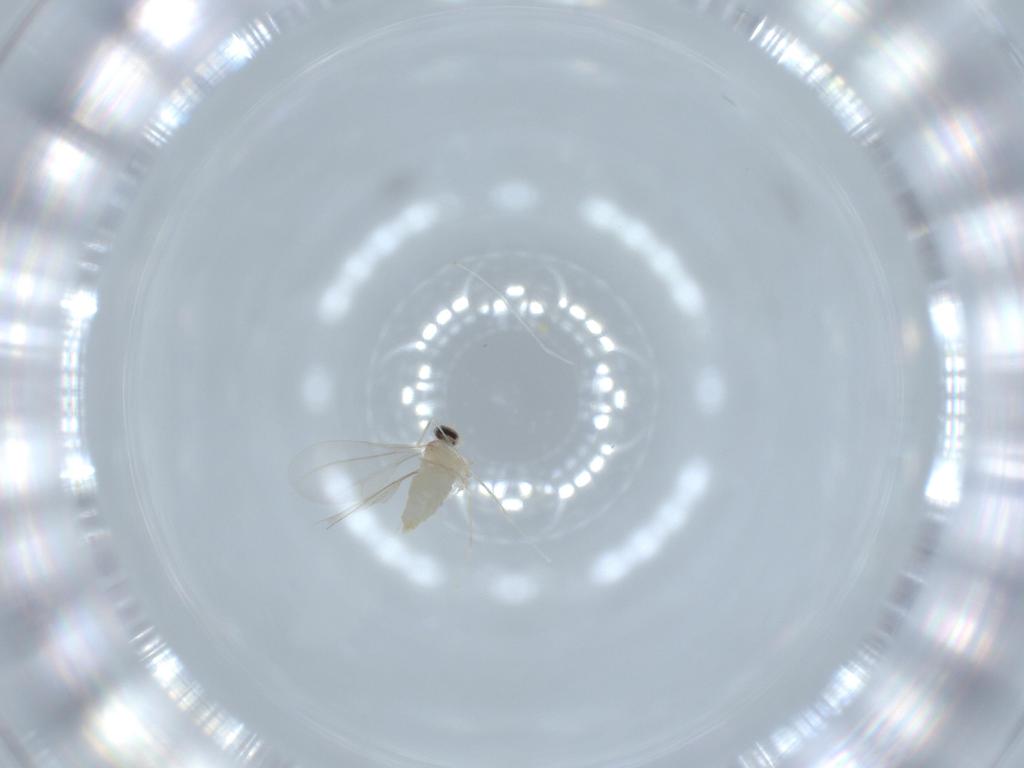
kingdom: Animalia
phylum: Arthropoda
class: Insecta
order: Diptera
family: Cecidomyiidae
